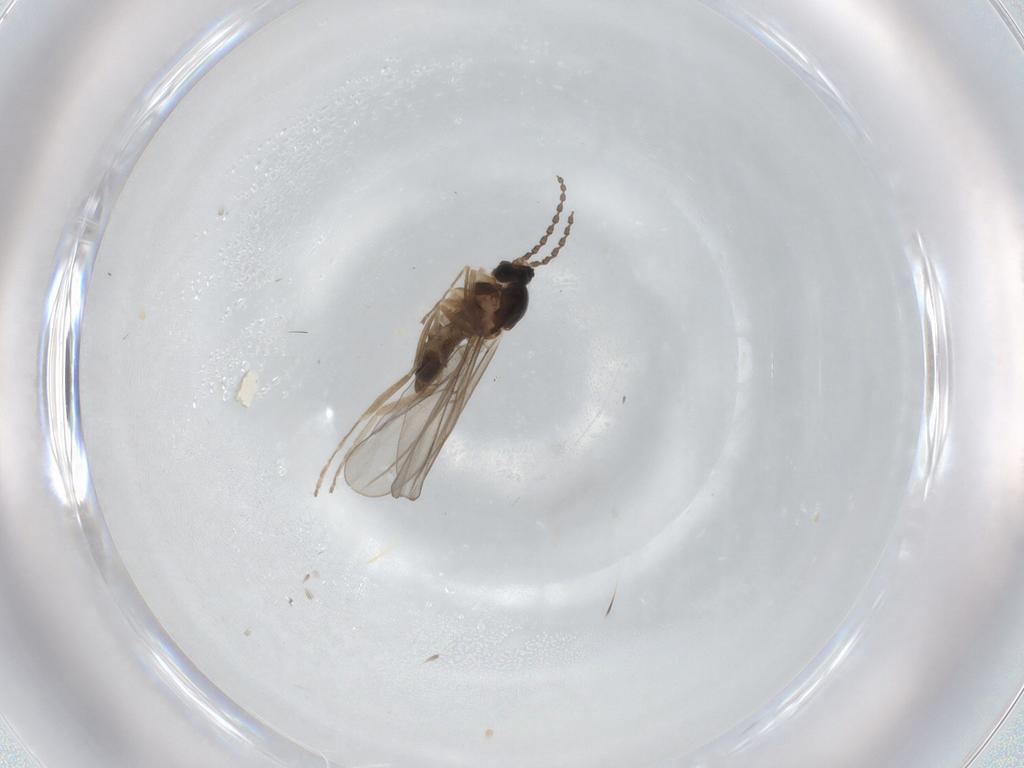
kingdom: Animalia
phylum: Arthropoda
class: Insecta
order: Diptera
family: Cecidomyiidae
